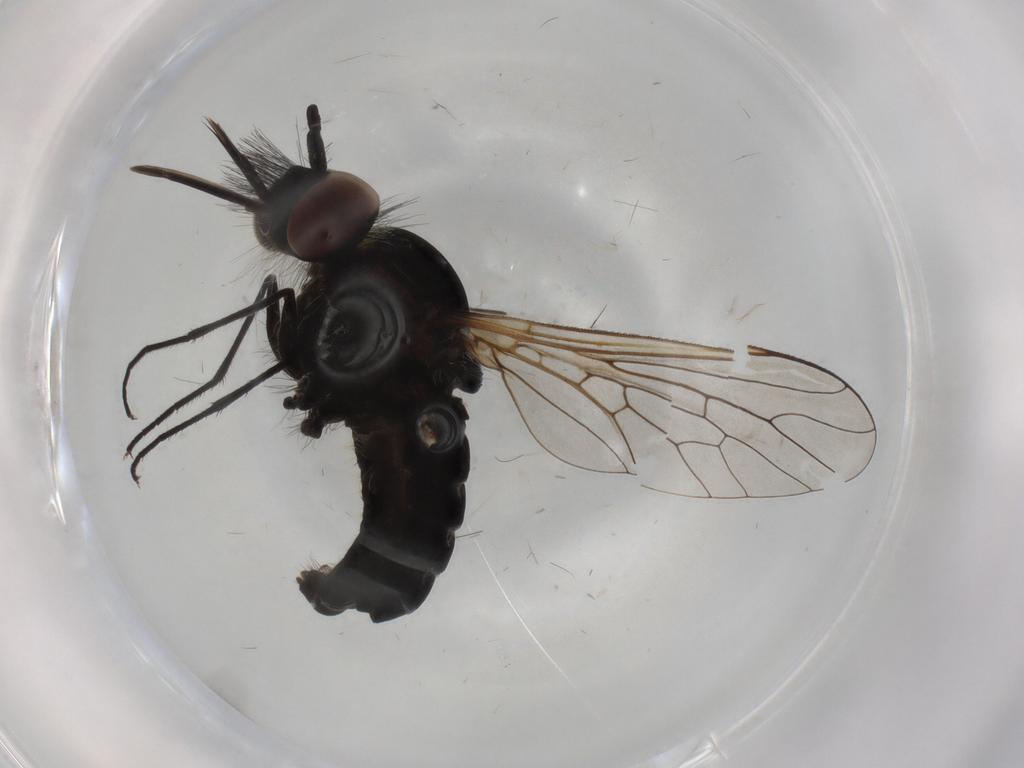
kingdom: Animalia
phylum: Arthropoda
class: Insecta
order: Diptera
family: Bombyliidae
